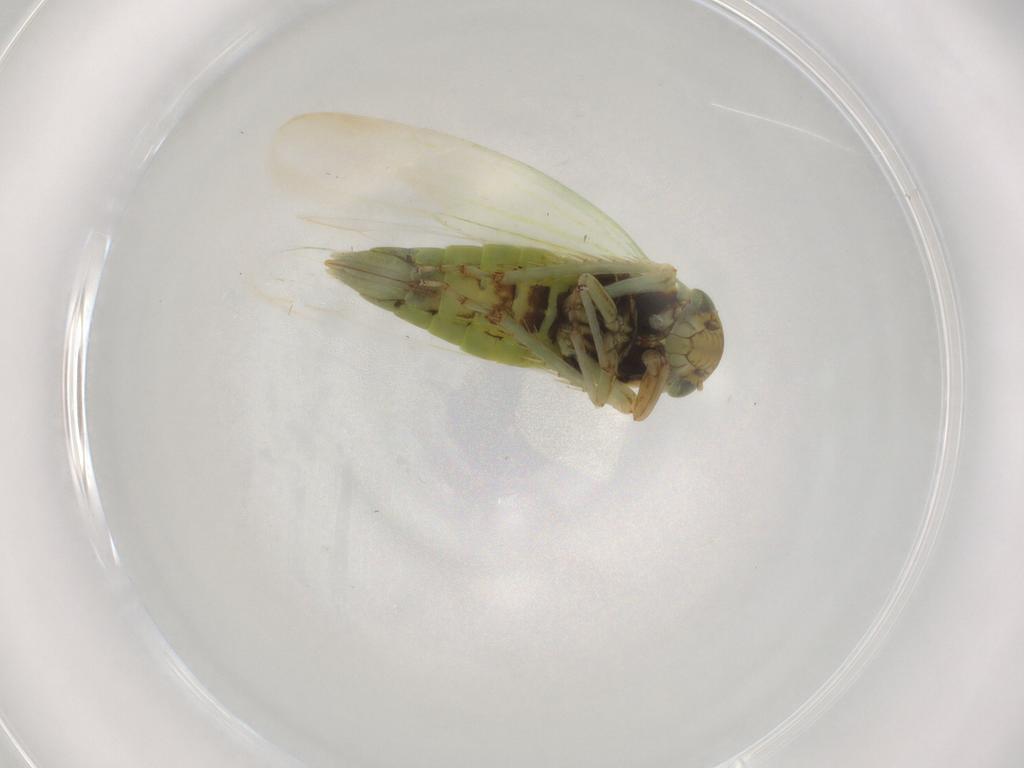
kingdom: Animalia
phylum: Arthropoda
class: Insecta
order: Hemiptera
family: Cicadellidae
